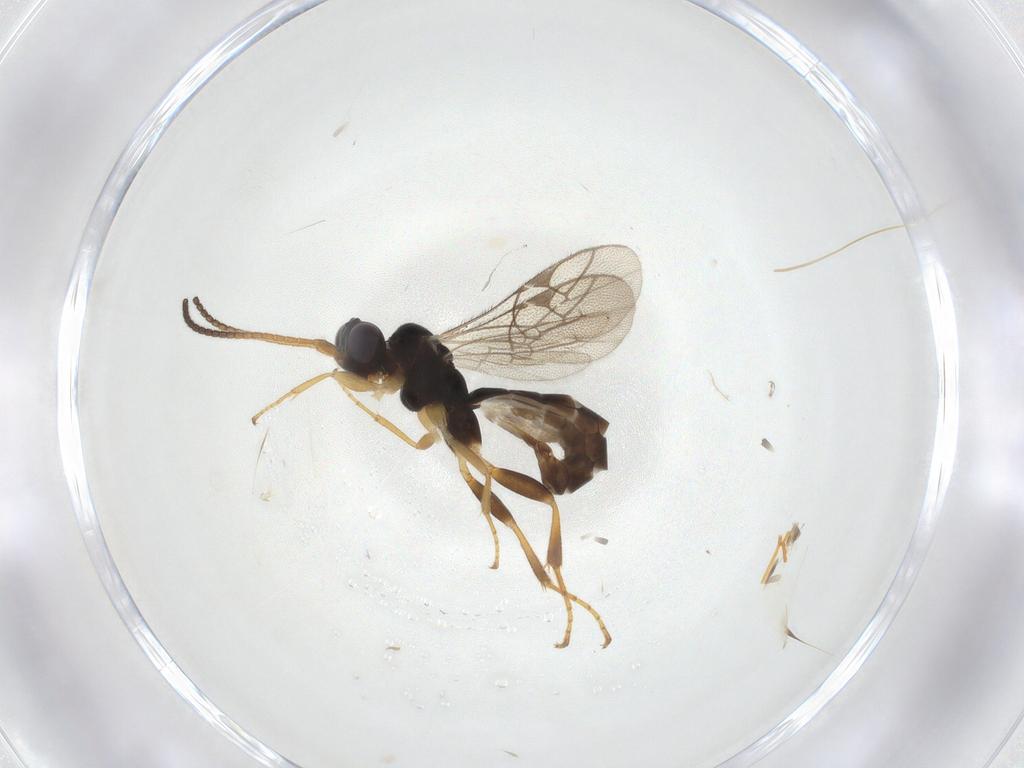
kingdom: Animalia
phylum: Arthropoda
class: Insecta
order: Hymenoptera
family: Ichneumonidae
